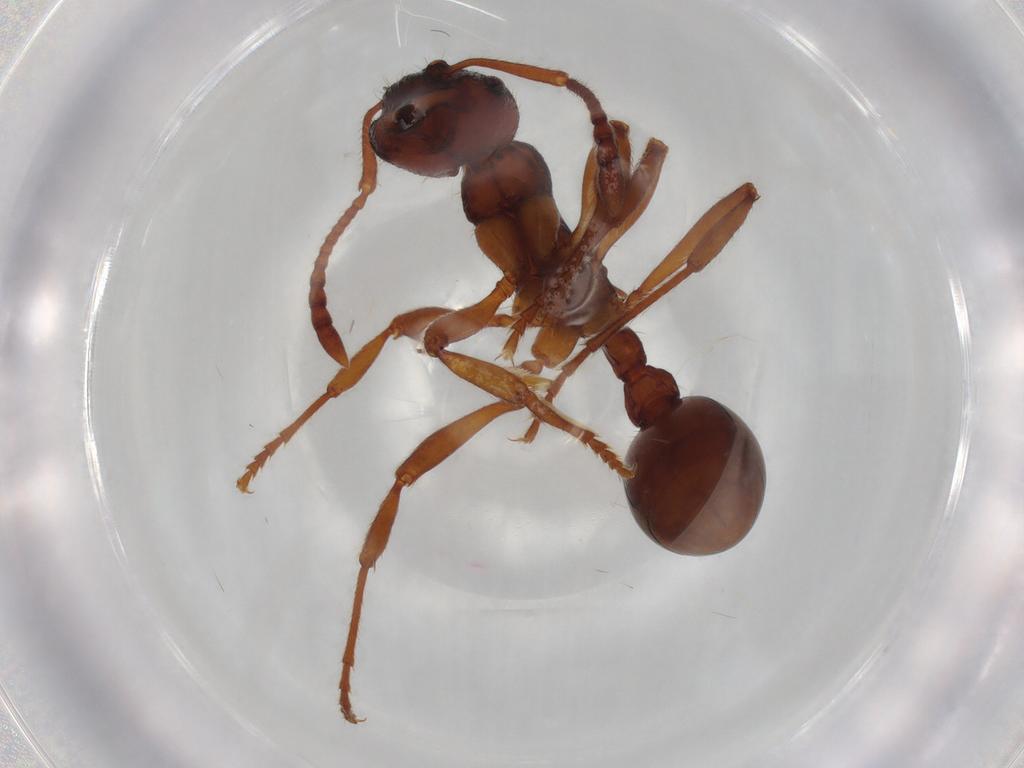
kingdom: Animalia
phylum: Arthropoda
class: Insecta
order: Hymenoptera
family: Formicidae
